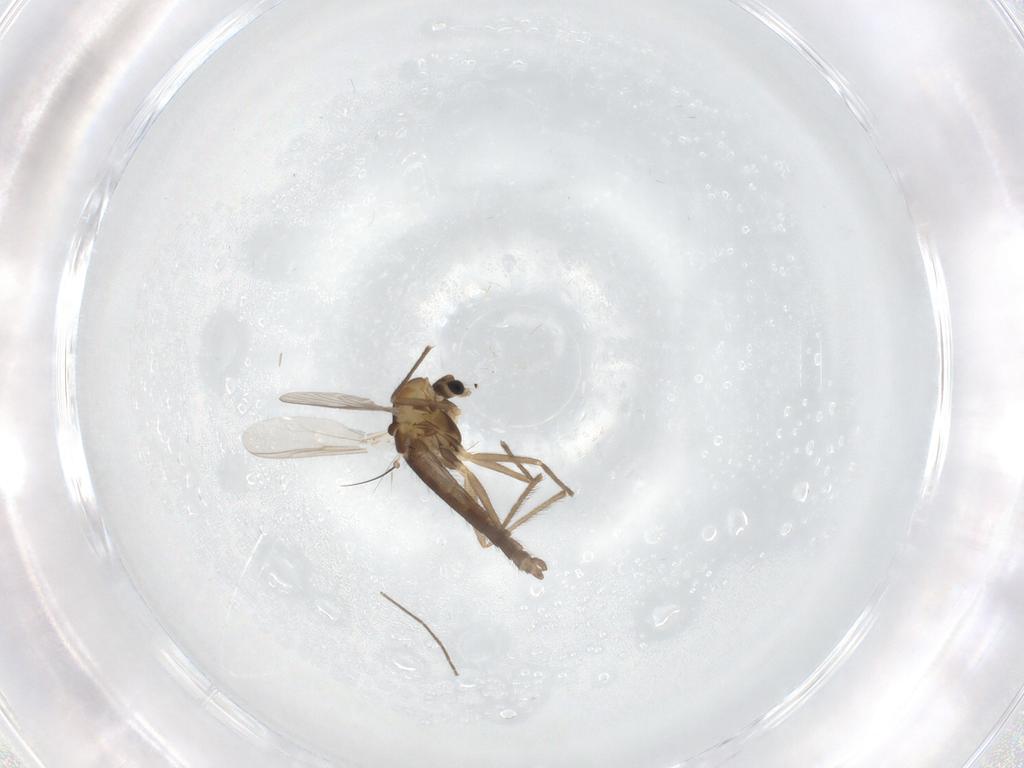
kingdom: Animalia
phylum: Arthropoda
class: Insecta
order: Diptera
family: Chironomidae
